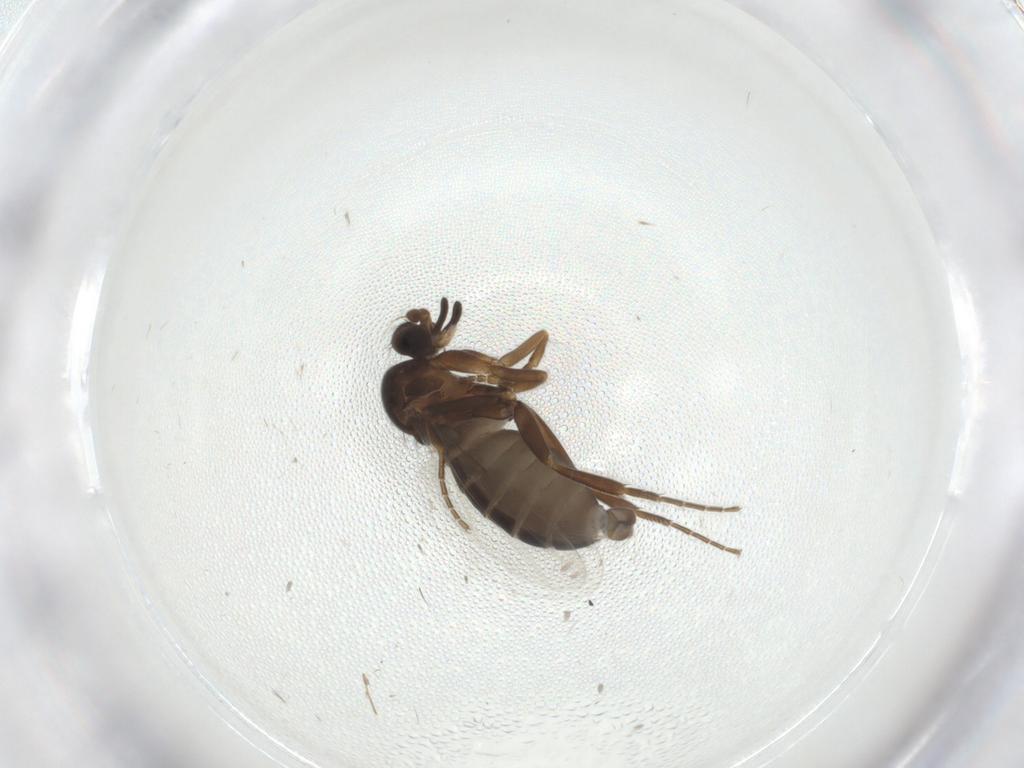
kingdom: Animalia
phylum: Arthropoda
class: Insecta
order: Diptera
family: Phoridae
